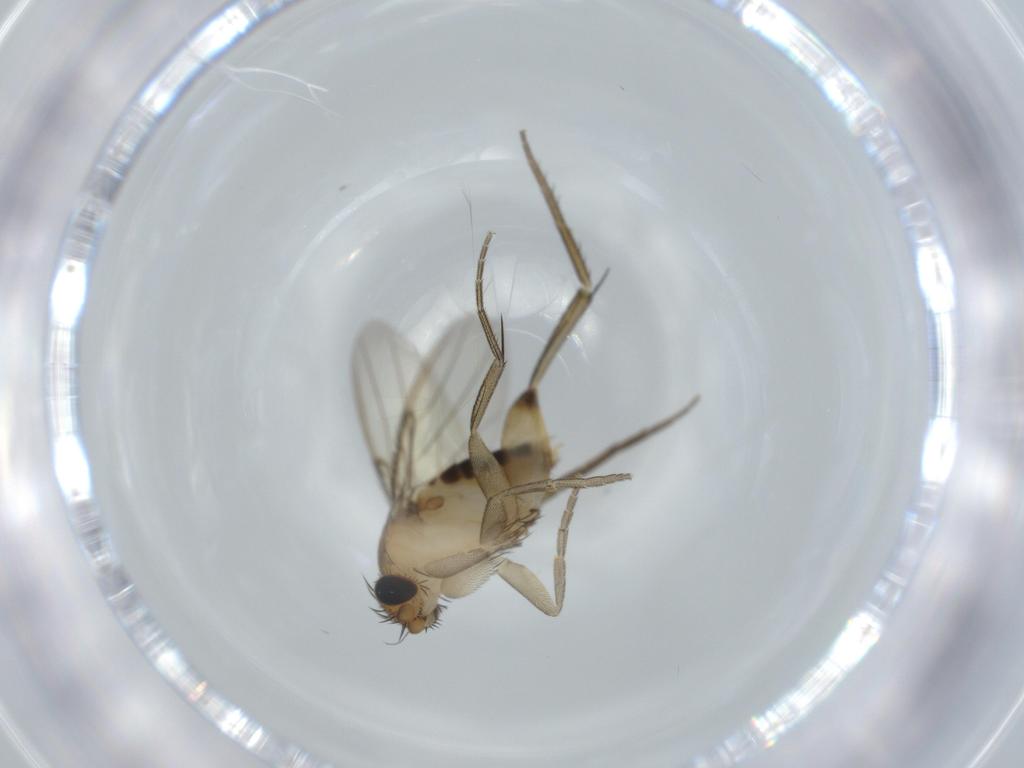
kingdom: Animalia
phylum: Arthropoda
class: Insecta
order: Diptera
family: Phoridae
